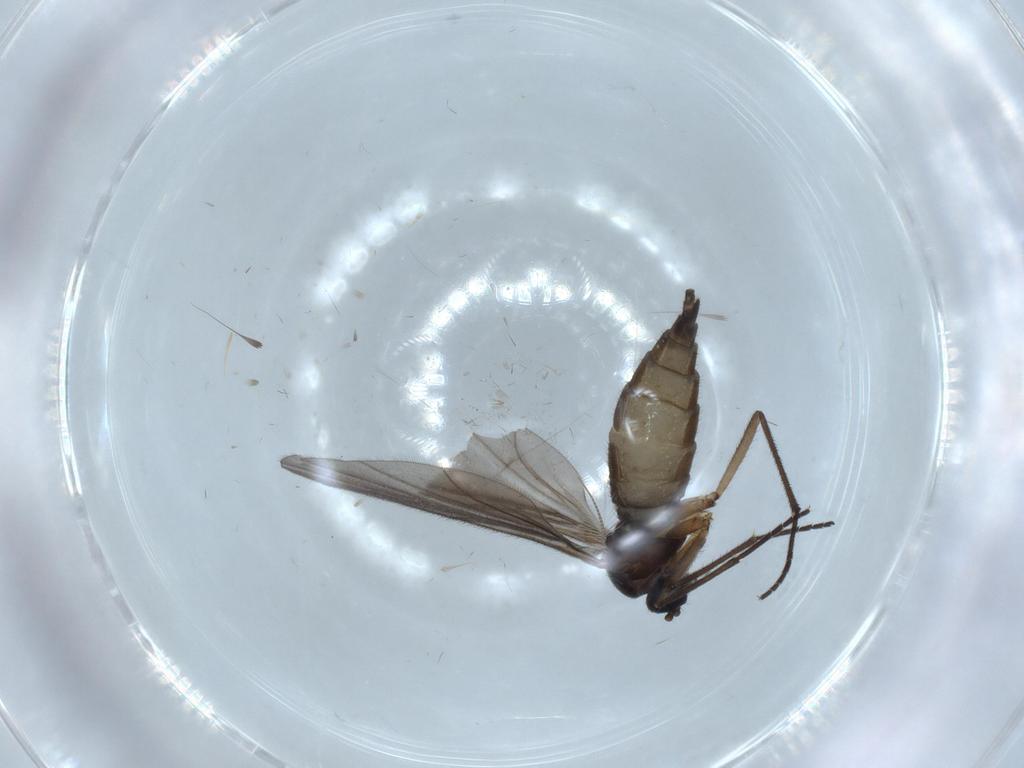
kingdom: Animalia
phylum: Arthropoda
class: Insecta
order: Diptera
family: Chironomidae
